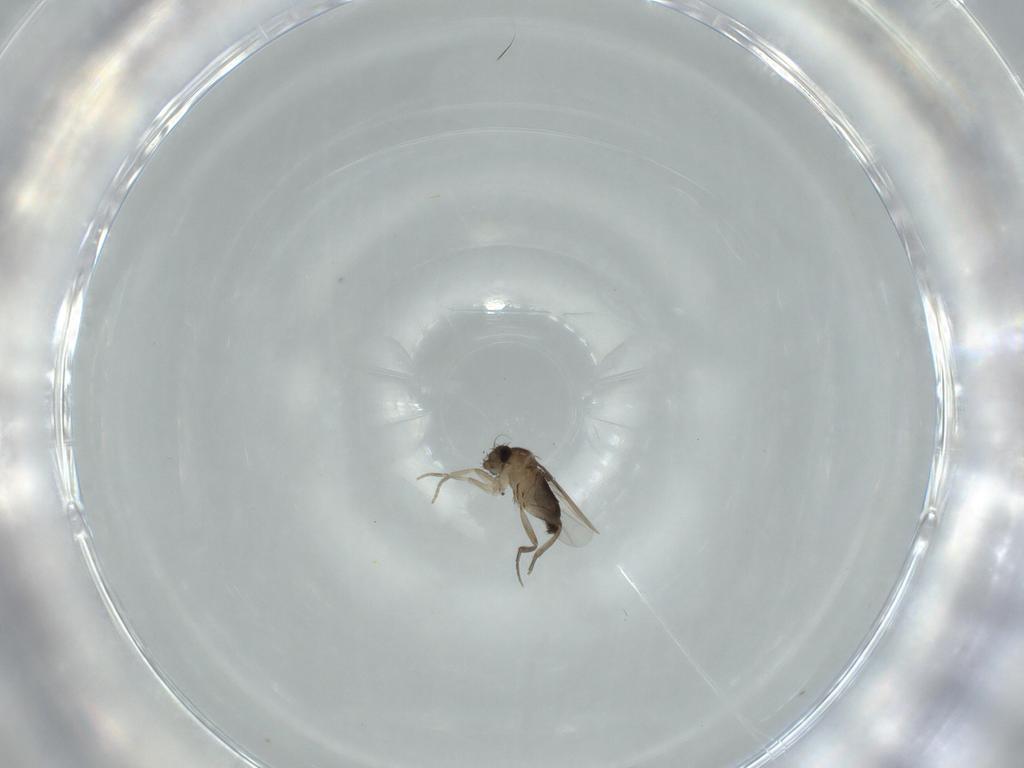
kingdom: Animalia
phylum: Arthropoda
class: Insecta
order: Diptera
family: Phoridae
